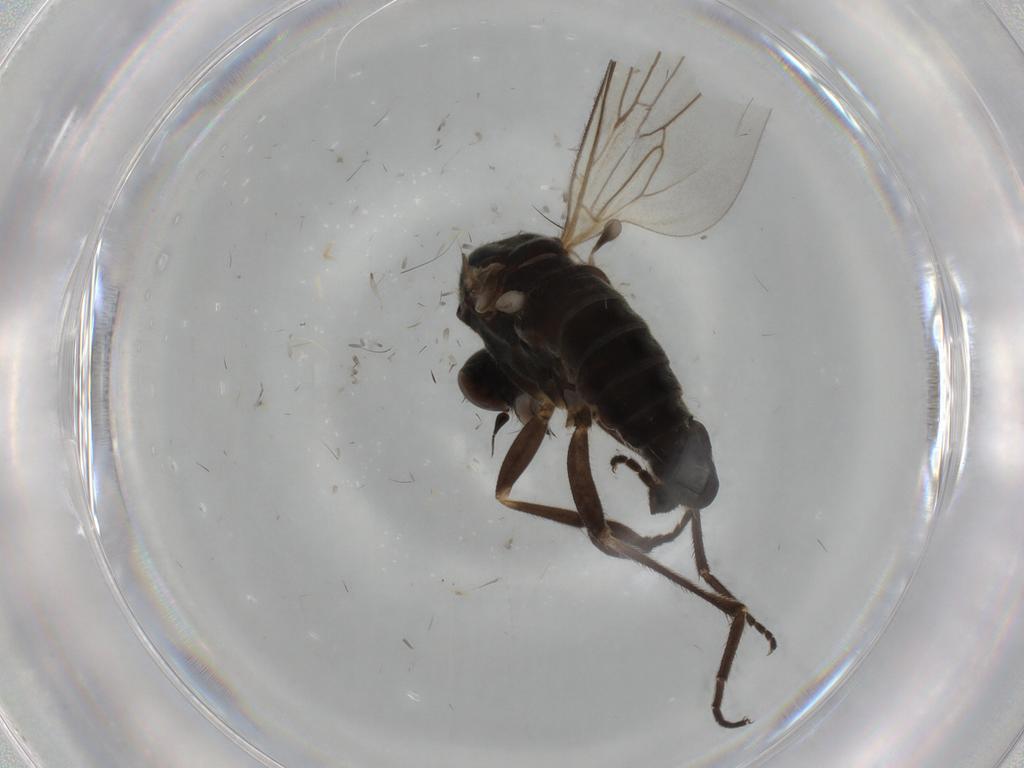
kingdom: Animalia
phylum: Arthropoda
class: Insecta
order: Diptera
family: Empididae
